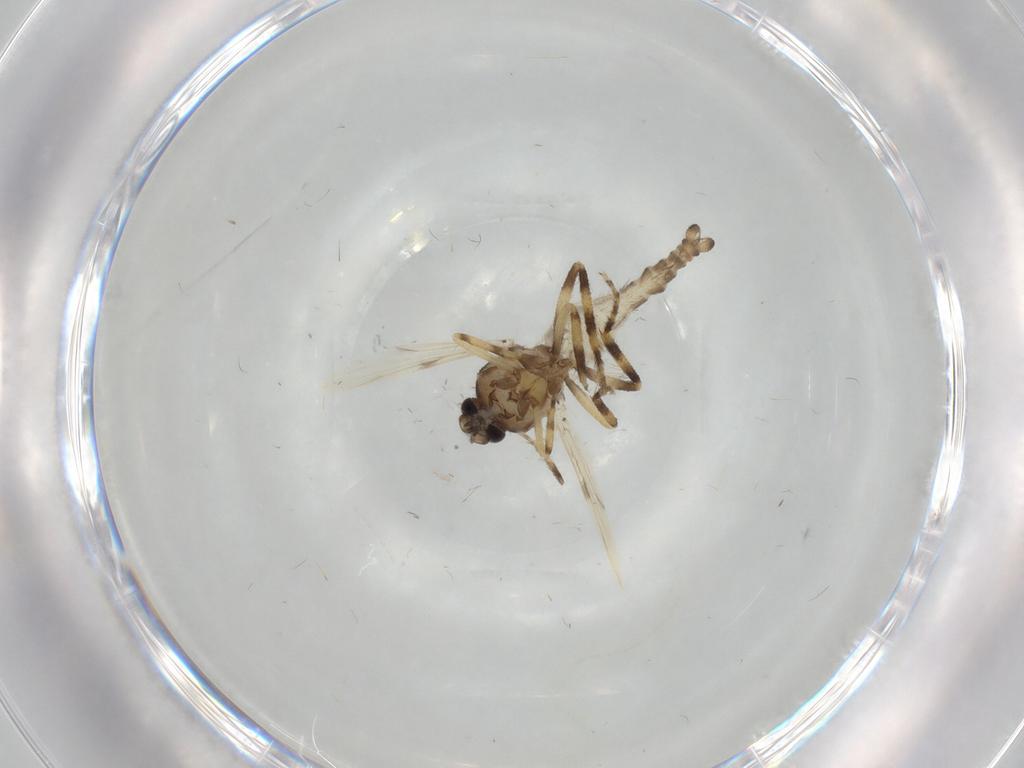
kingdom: Animalia
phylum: Arthropoda
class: Insecta
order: Diptera
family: Ceratopogonidae
